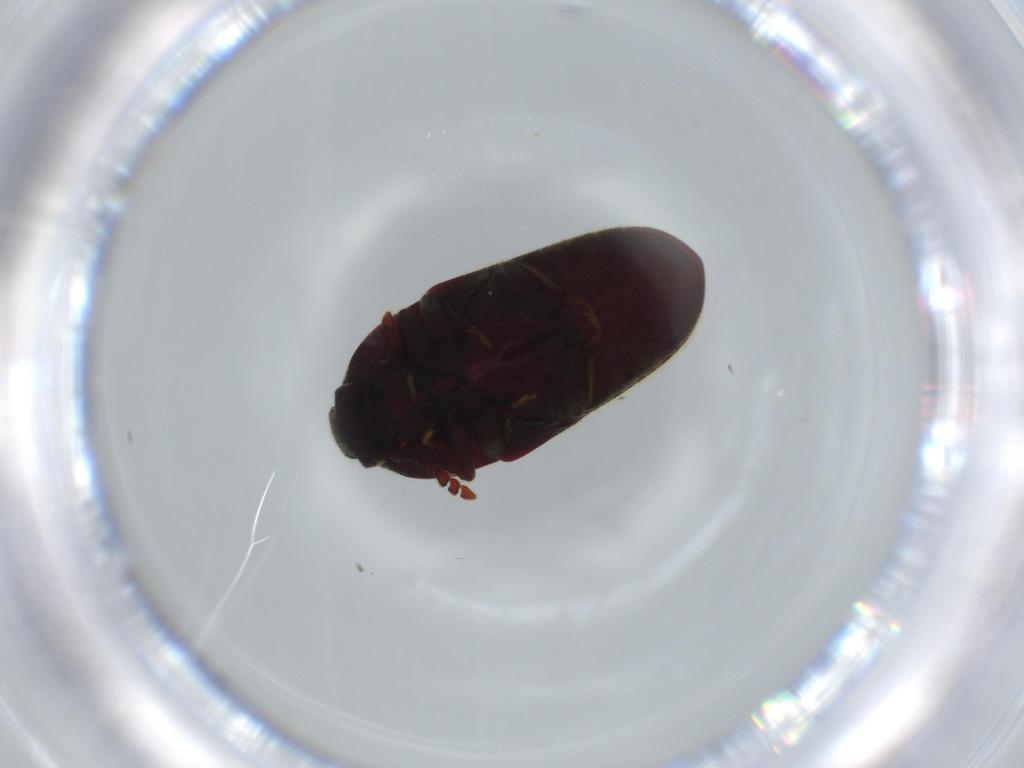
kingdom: Animalia
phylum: Arthropoda
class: Insecta
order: Coleoptera
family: Throscidae
